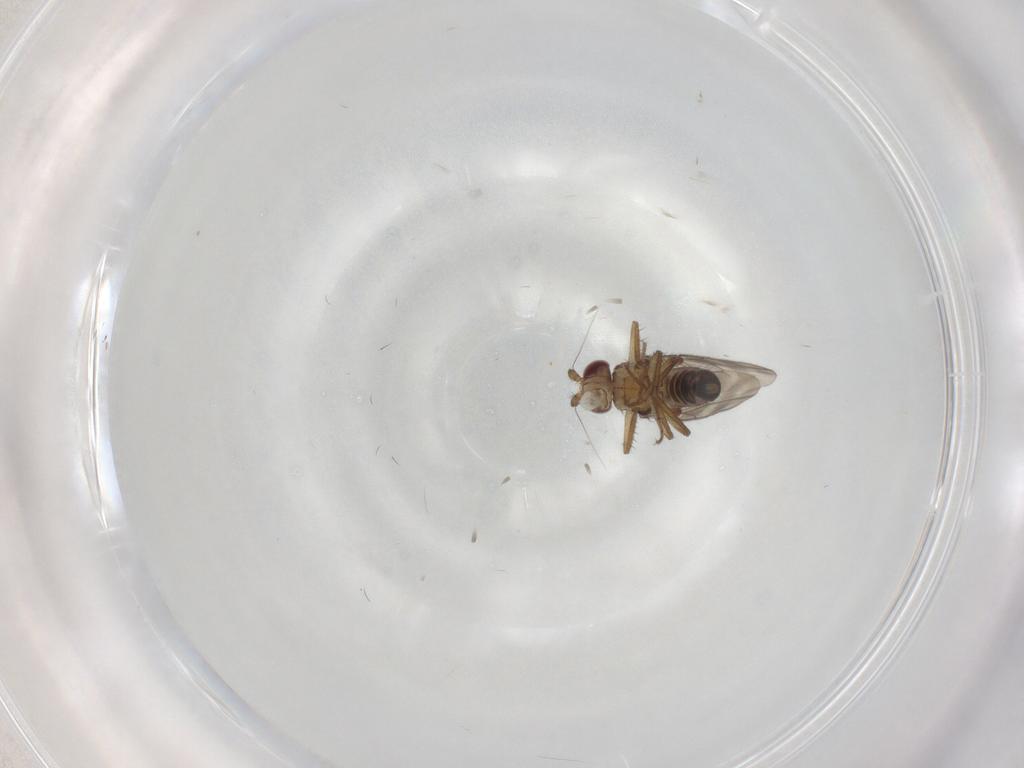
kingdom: Animalia
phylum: Arthropoda
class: Insecta
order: Diptera
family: Sphaeroceridae
